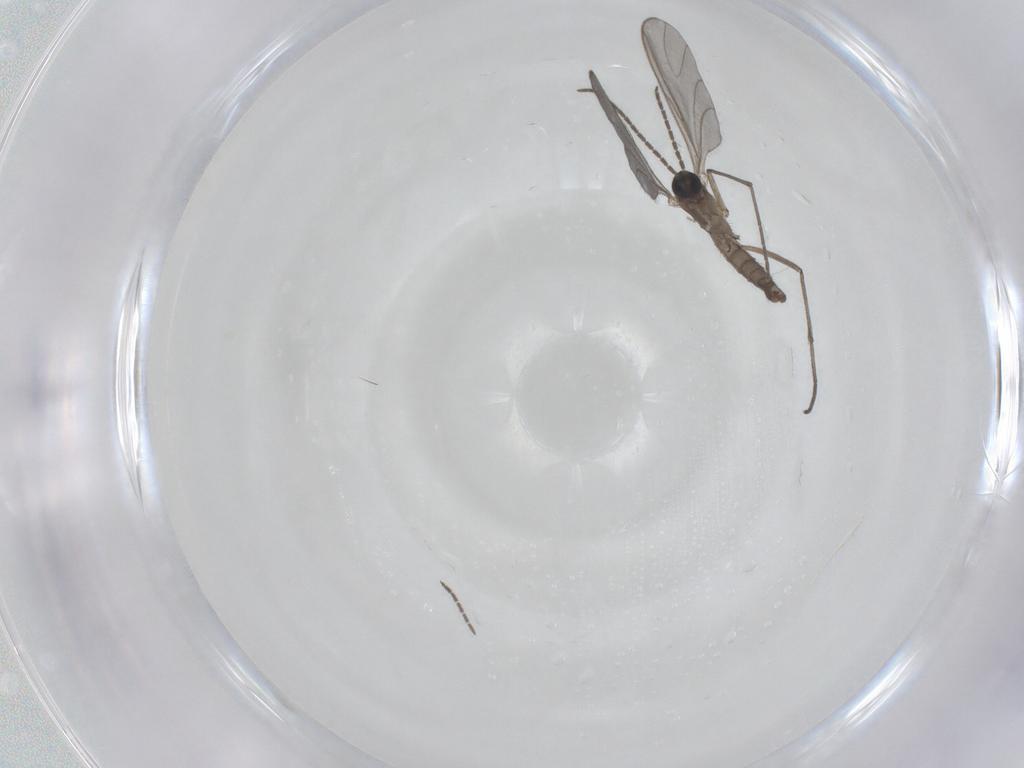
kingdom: Animalia
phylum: Arthropoda
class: Insecta
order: Diptera
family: Sciaridae
